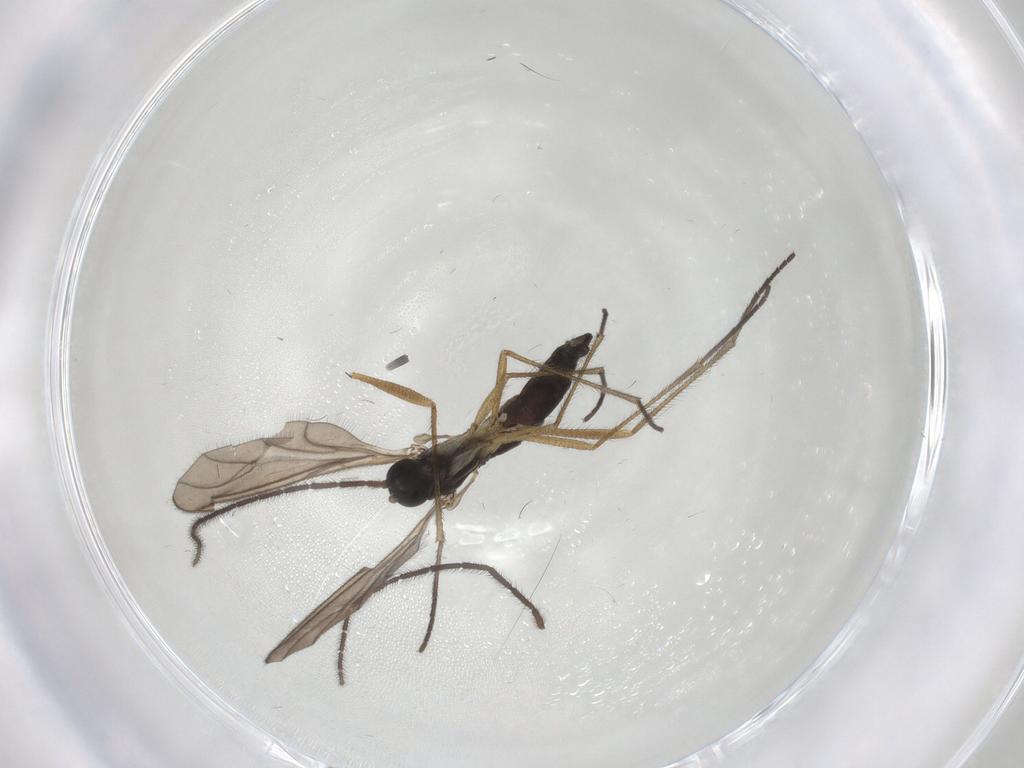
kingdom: Animalia
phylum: Arthropoda
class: Insecta
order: Diptera
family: Sciaridae
